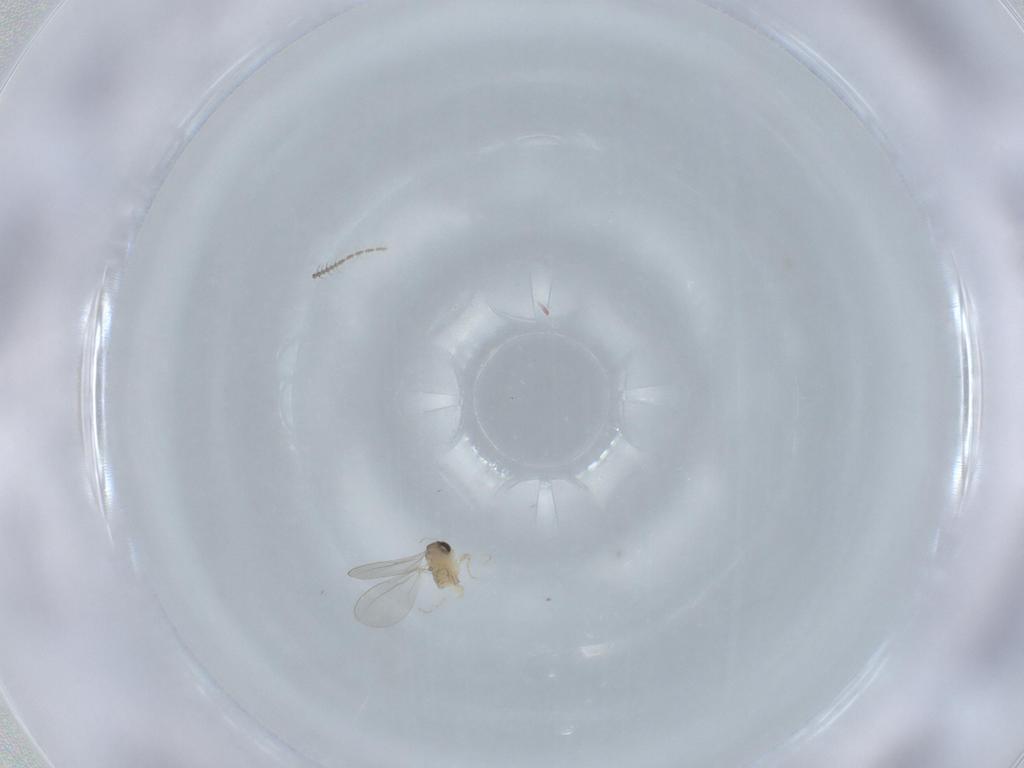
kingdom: Animalia
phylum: Arthropoda
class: Insecta
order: Diptera
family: Cecidomyiidae
